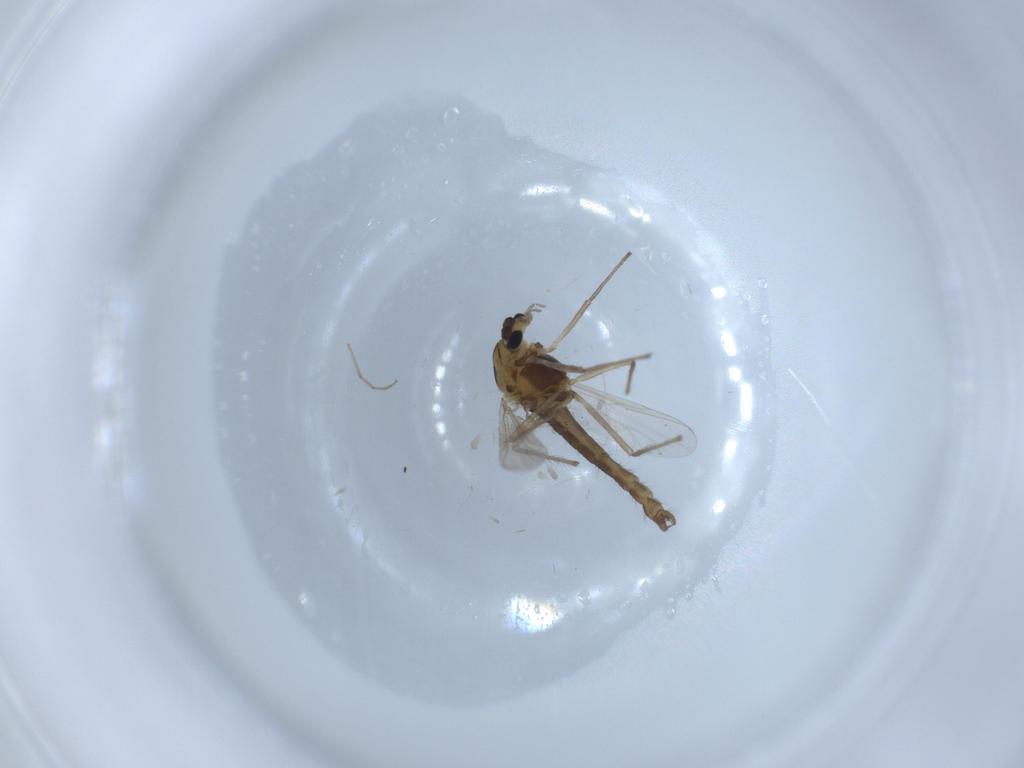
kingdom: Animalia
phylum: Arthropoda
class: Insecta
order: Diptera
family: Chironomidae
